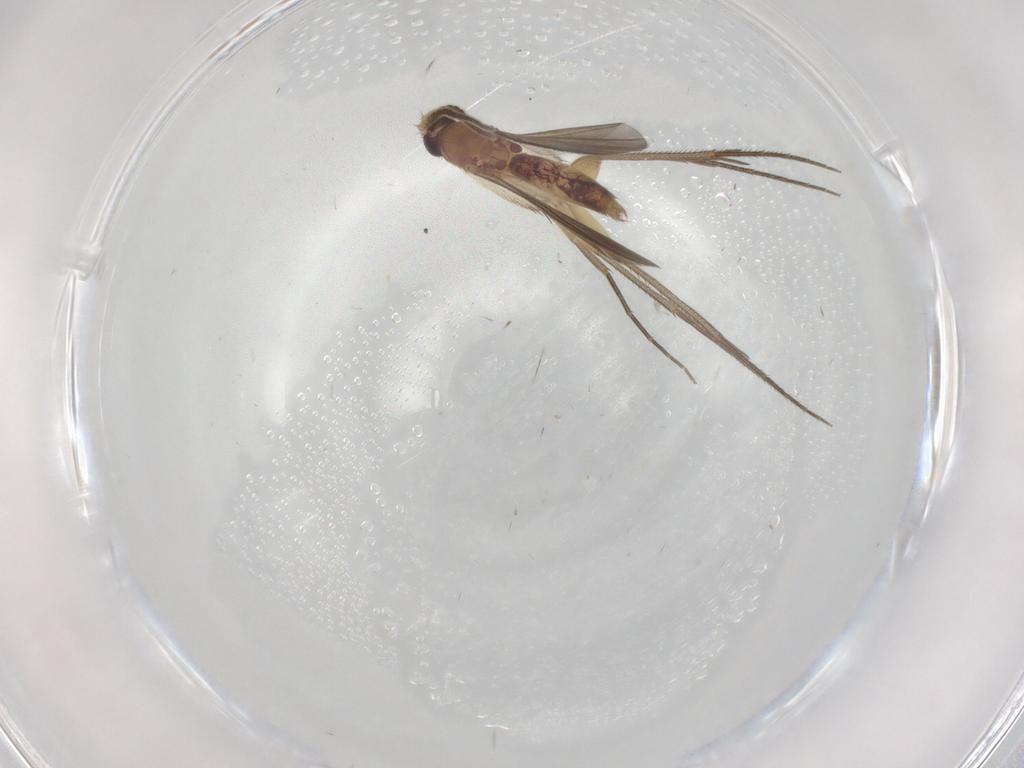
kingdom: Animalia
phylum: Arthropoda
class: Insecta
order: Diptera
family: Mycetophilidae
